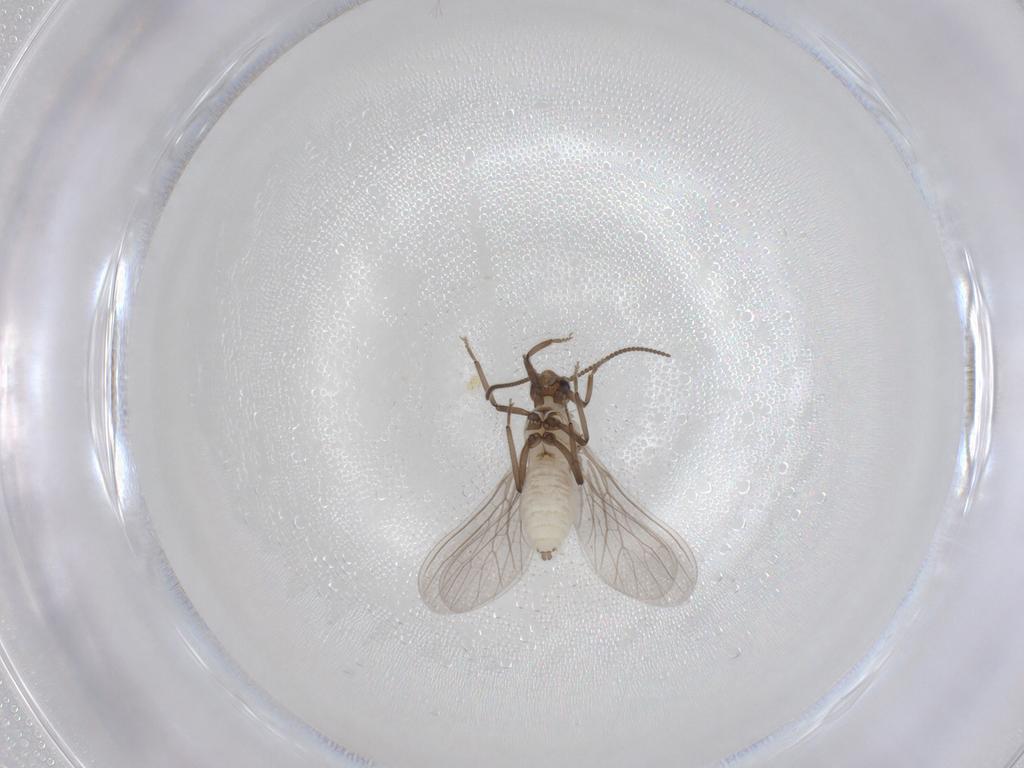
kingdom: Animalia
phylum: Arthropoda
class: Insecta
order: Neuroptera
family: Coniopterygidae
